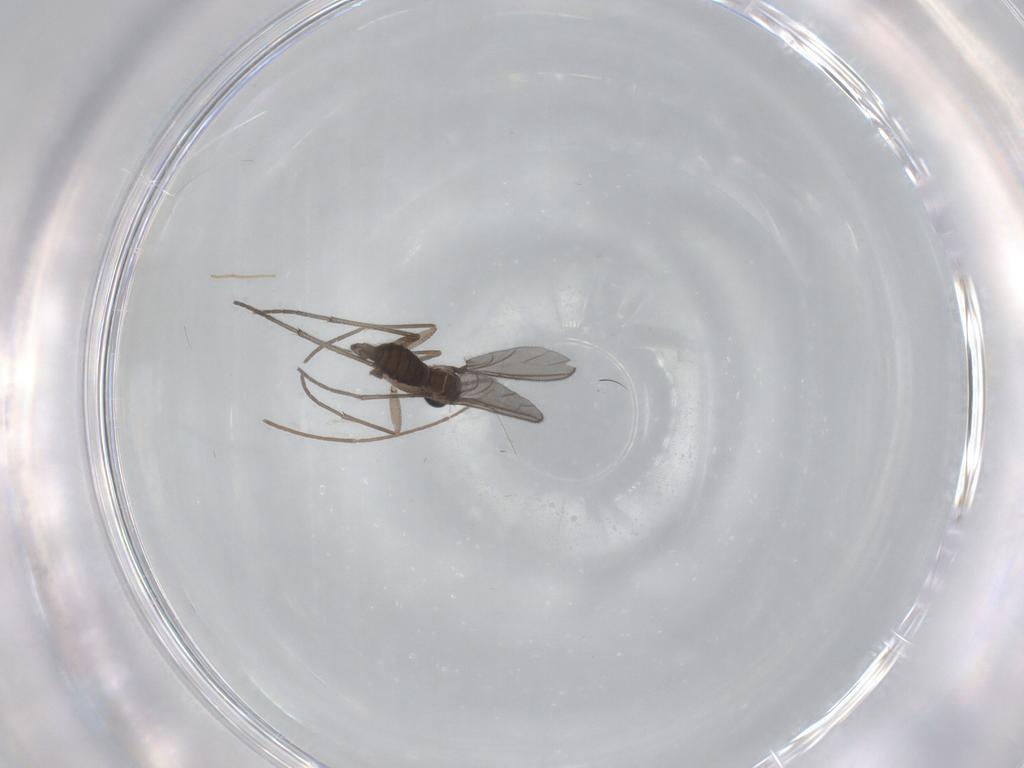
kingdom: Animalia
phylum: Arthropoda
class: Insecta
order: Diptera
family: Sciaridae
